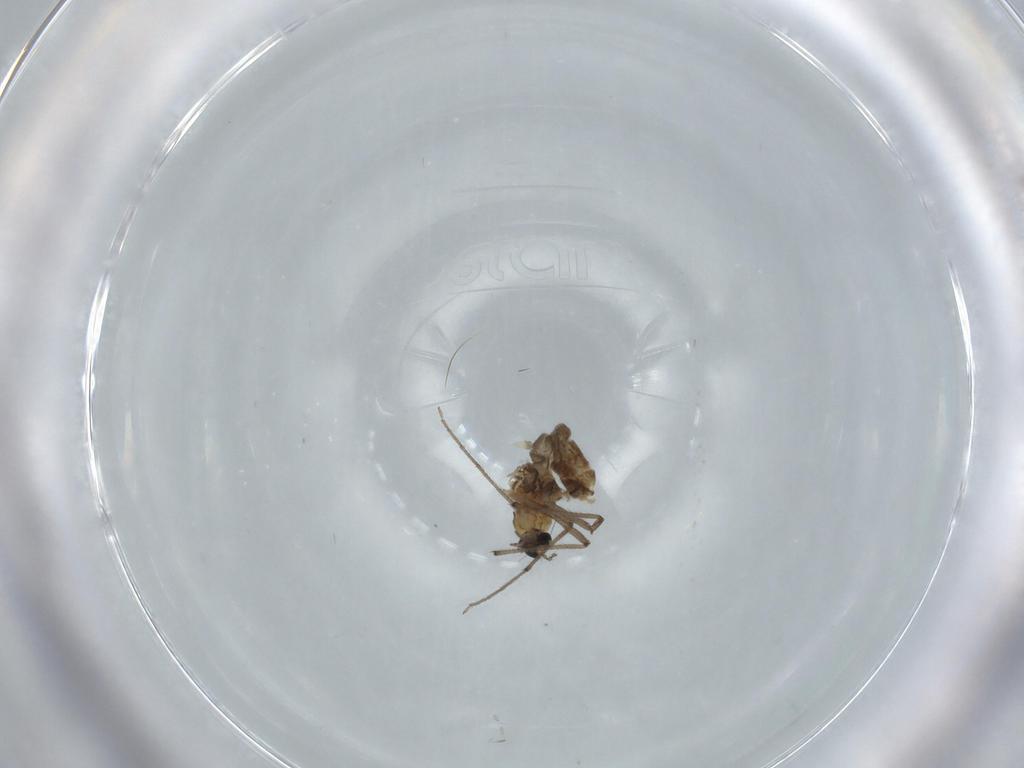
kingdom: Animalia
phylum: Arthropoda
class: Insecta
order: Diptera
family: Chironomidae
